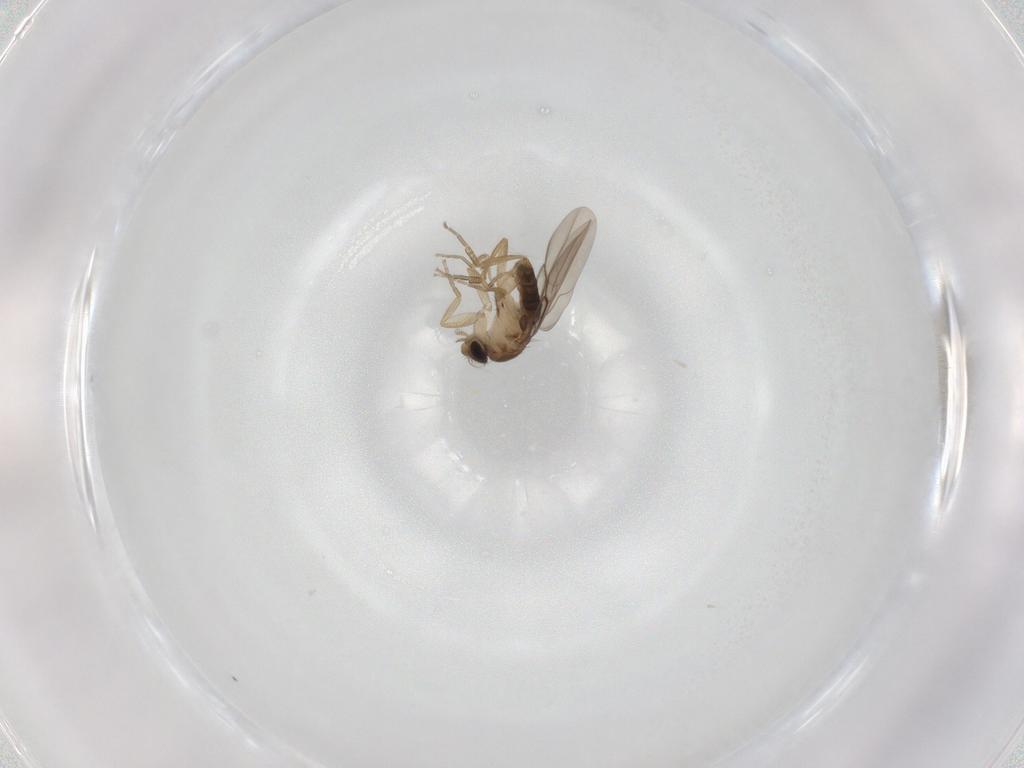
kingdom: Animalia
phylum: Arthropoda
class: Insecta
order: Diptera
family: Phoridae
